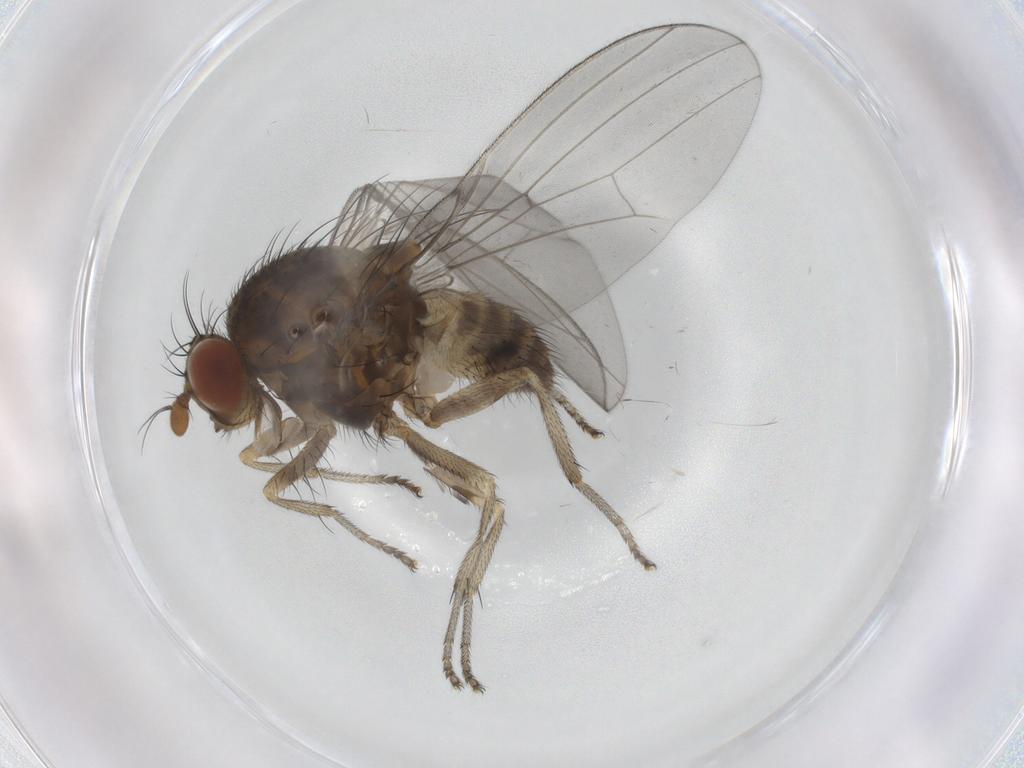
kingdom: Animalia
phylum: Arthropoda
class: Insecta
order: Diptera
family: Lauxaniidae
